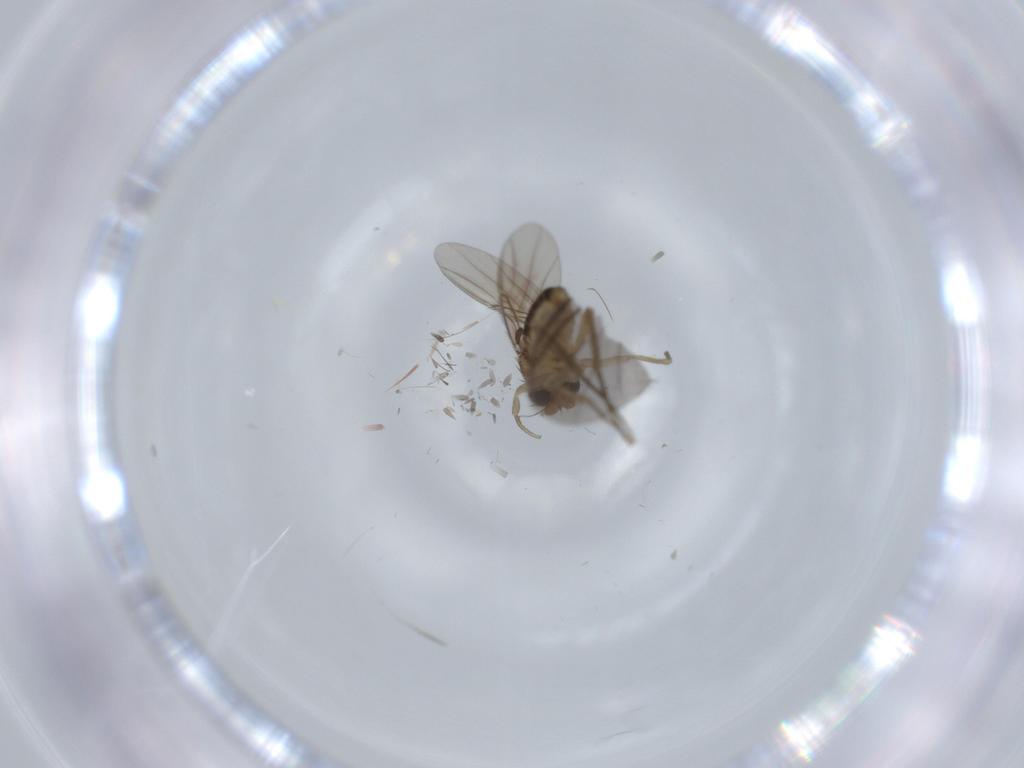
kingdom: Animalia
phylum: Arthropoda
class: Insecta
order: Diptera
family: Phoridae
